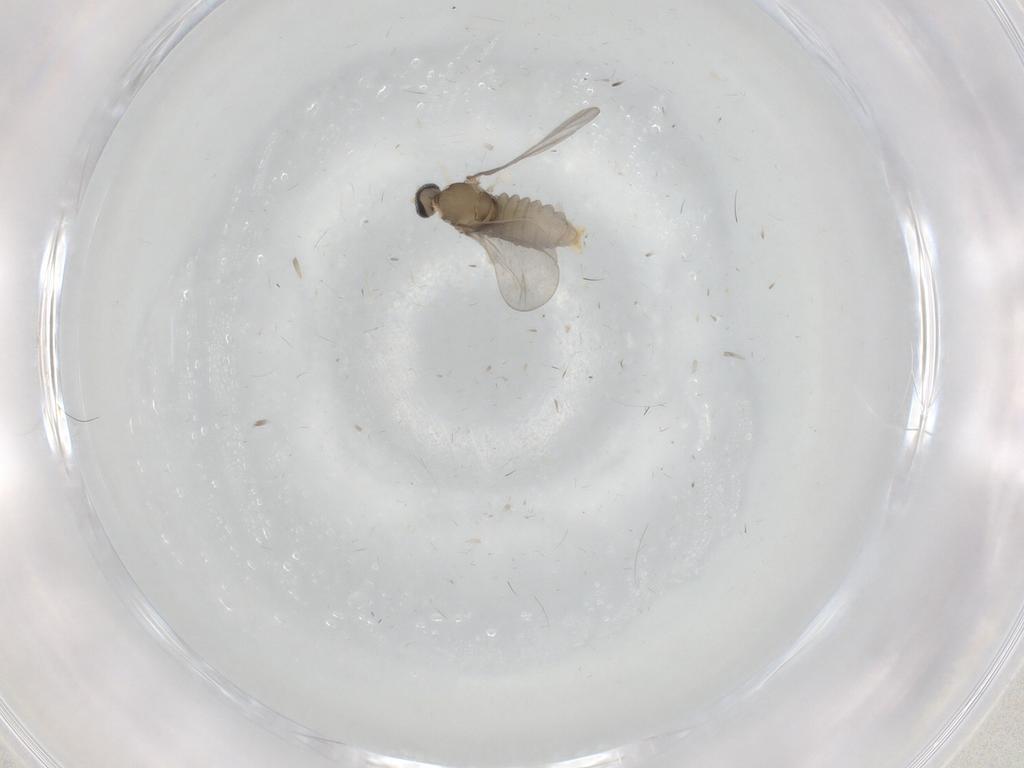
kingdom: Animalia
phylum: Arthropoda
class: Insecta
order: Diptera
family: Cecidomyiidae
